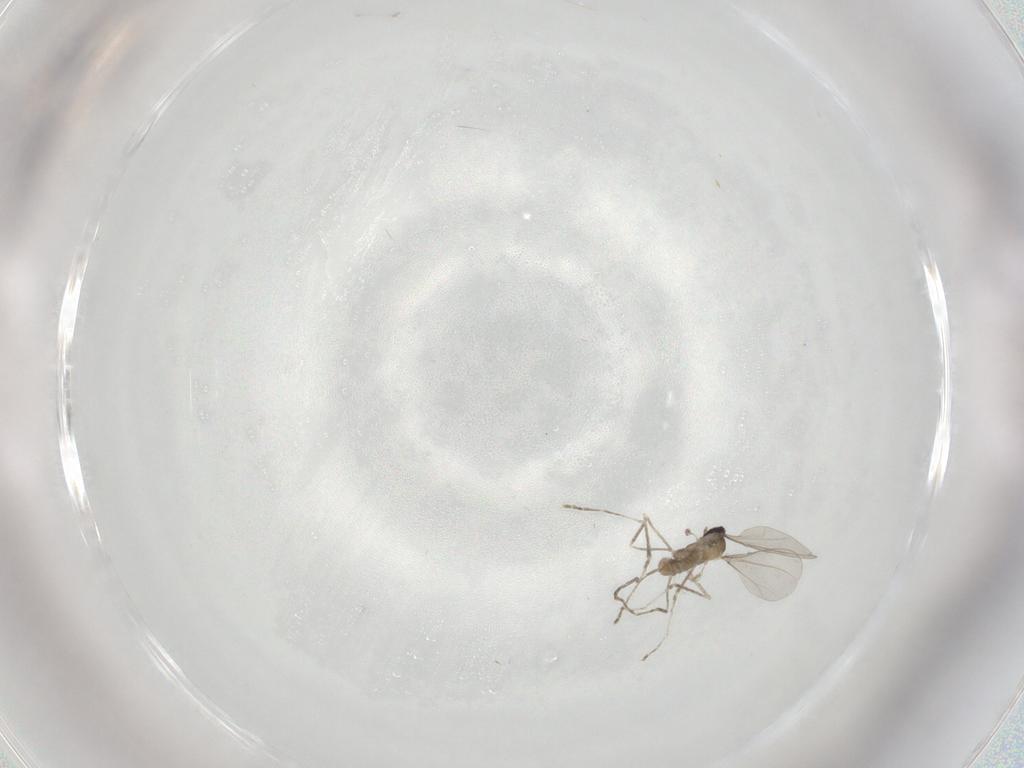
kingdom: Animalia
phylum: Arthropoda
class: Insecta
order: Diptera
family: Cecidomyiidae
